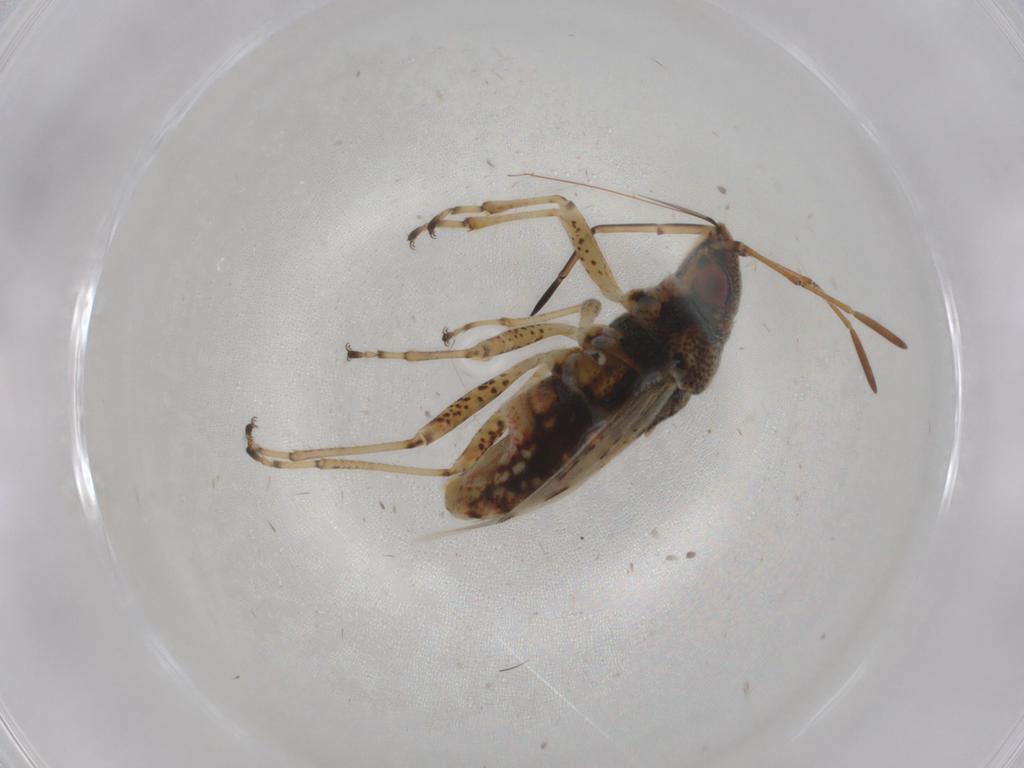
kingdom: Animalia
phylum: Arthropoda
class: Insecta
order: Hemiptera
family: Lygaeidae
